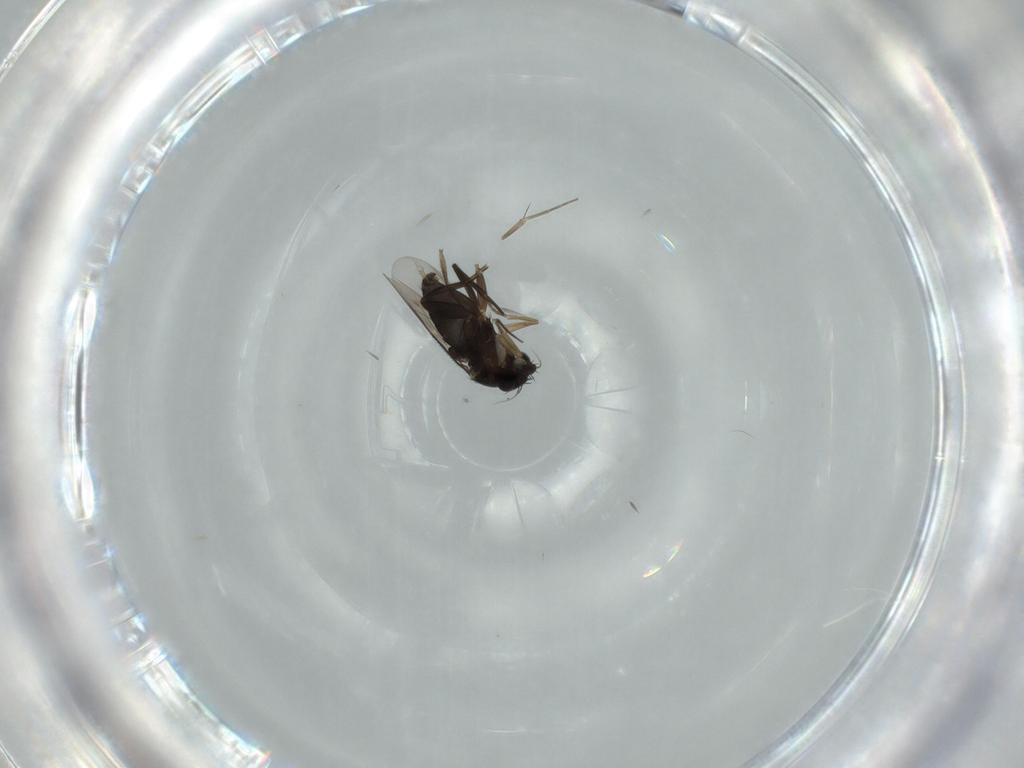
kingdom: Animalia
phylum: Arthropoda
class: Insecta
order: Diptera
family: Phoridae
